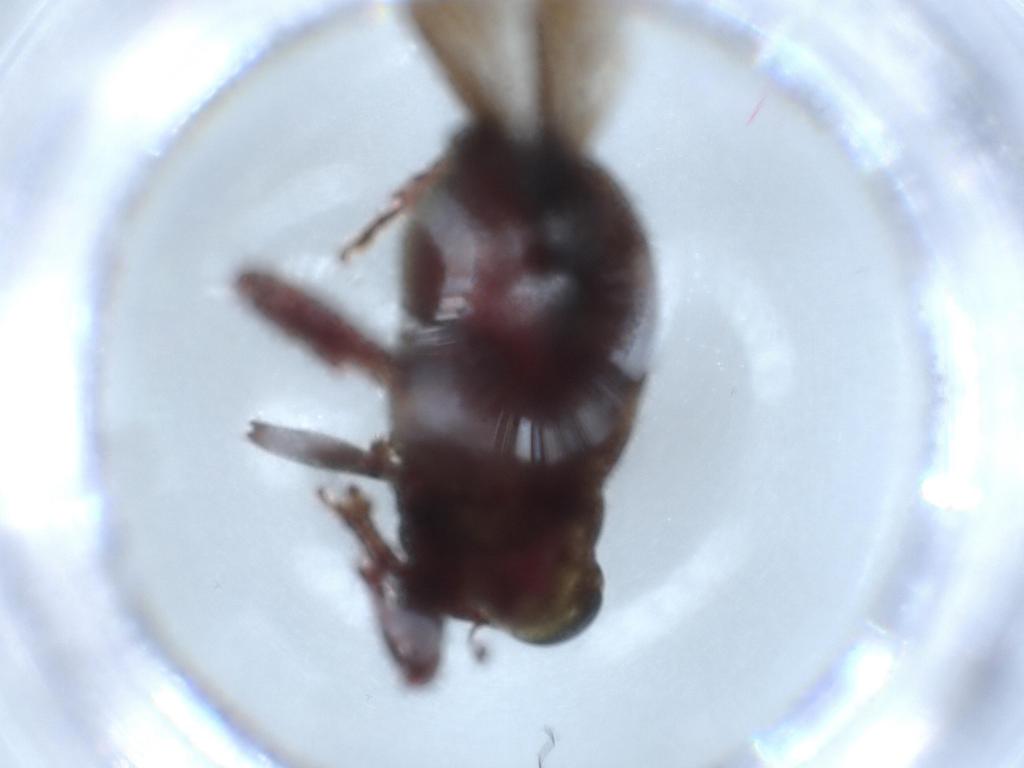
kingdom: Animalia
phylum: Arthropoda
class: Insecta
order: Coleoptera
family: Curculionidae
